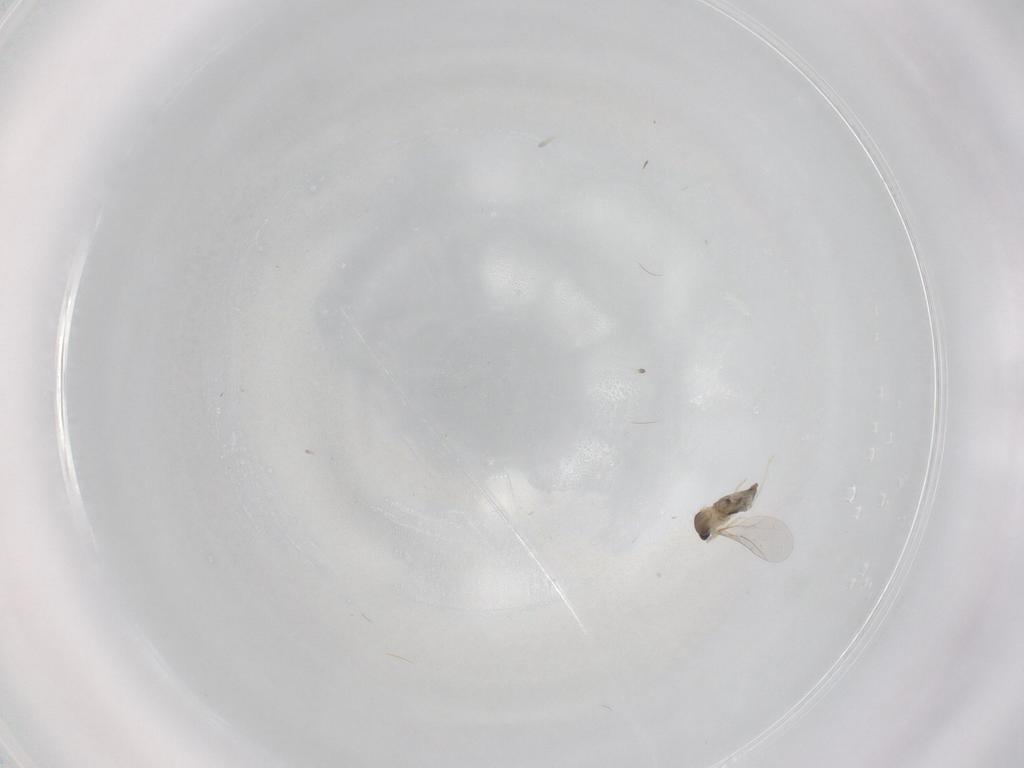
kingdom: Animalia
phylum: Arthropoda
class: Insecta
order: Diptera
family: Cecidomyiidae
